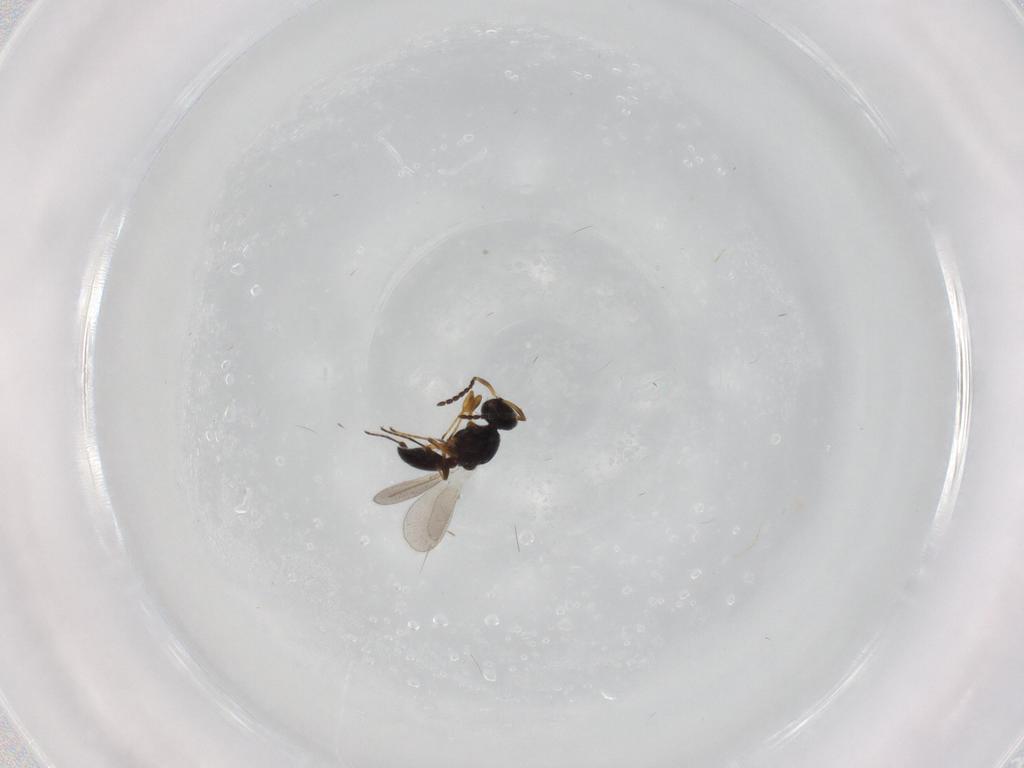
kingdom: Animalia
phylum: Arthropoda
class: Insecta
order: Hymenoptera
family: Platygastridae
